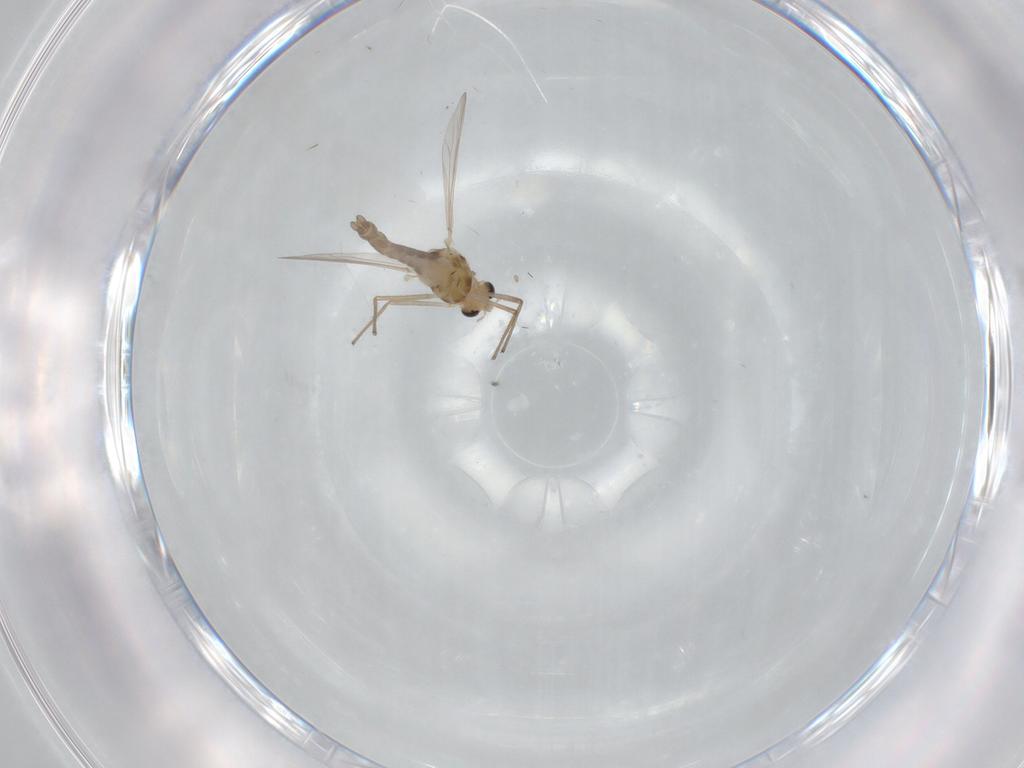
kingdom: Animalia
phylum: Arthropoda
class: Insecta
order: Diptera
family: Chironomidae
